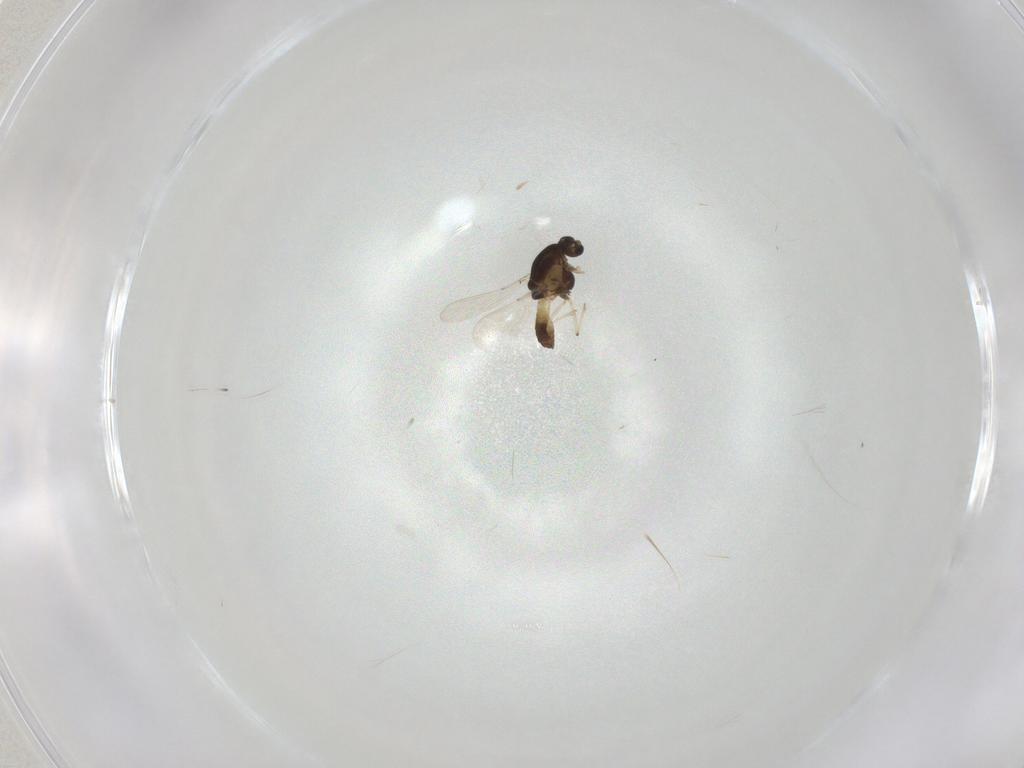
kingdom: Animalia
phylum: Arthropoda
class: Insecta
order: Diptera
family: Chironomidae
